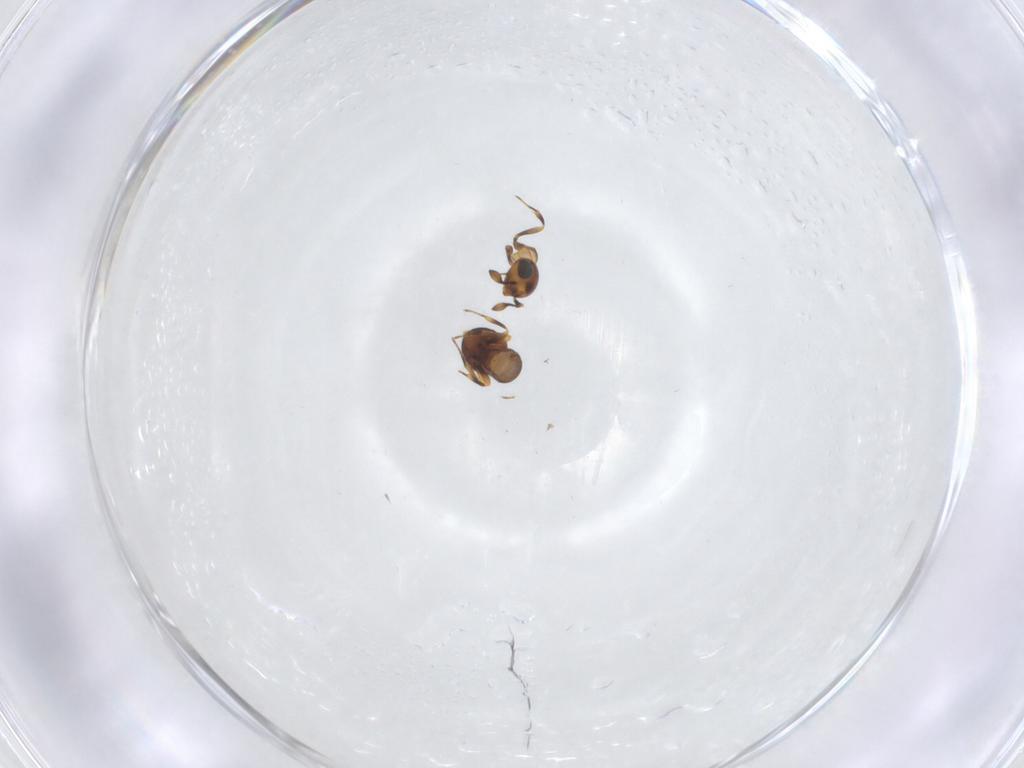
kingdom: Animalia
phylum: Arthropoda
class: Insecta
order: Hymenoptera
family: Scelionidae
